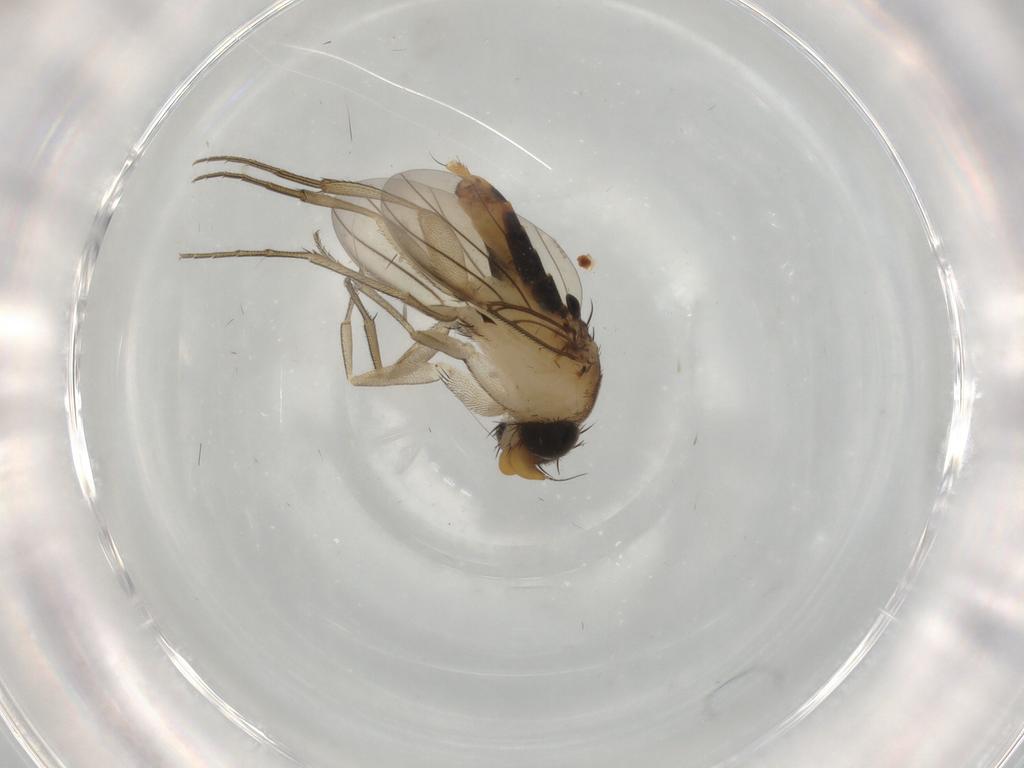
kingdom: Animalia
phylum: Arthropoda
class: Insecta
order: Diptera
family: Phoridae
